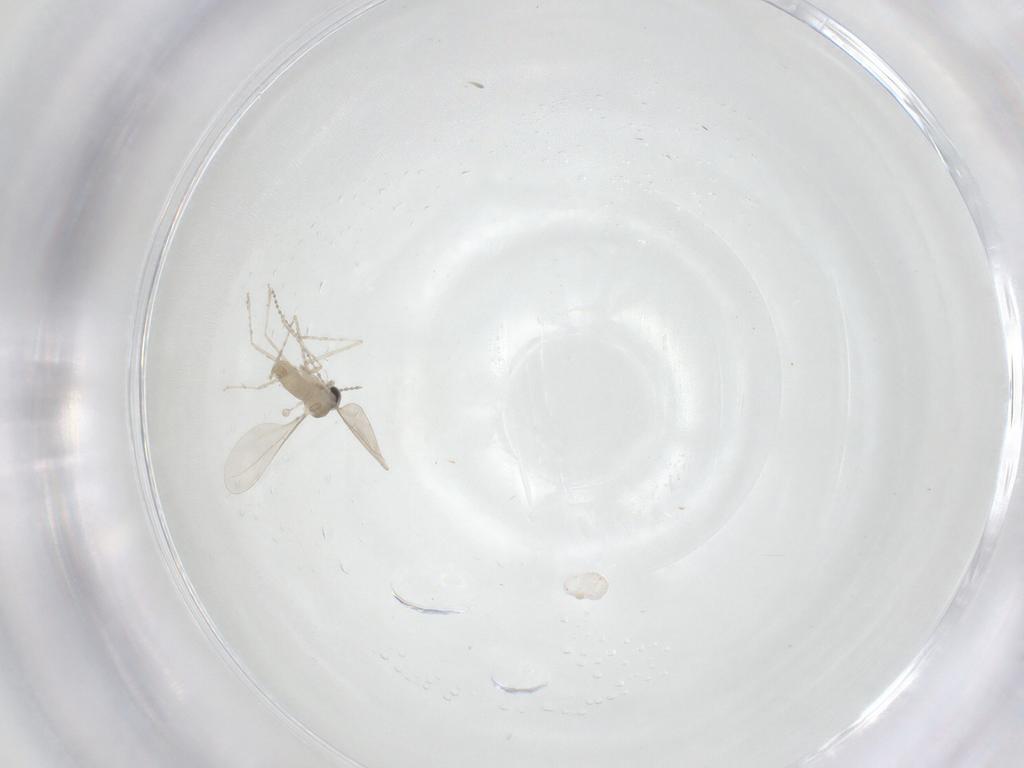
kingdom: Animalia
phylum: Arthropoda
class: Insecta
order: Diptera
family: Cecidomyiidae
